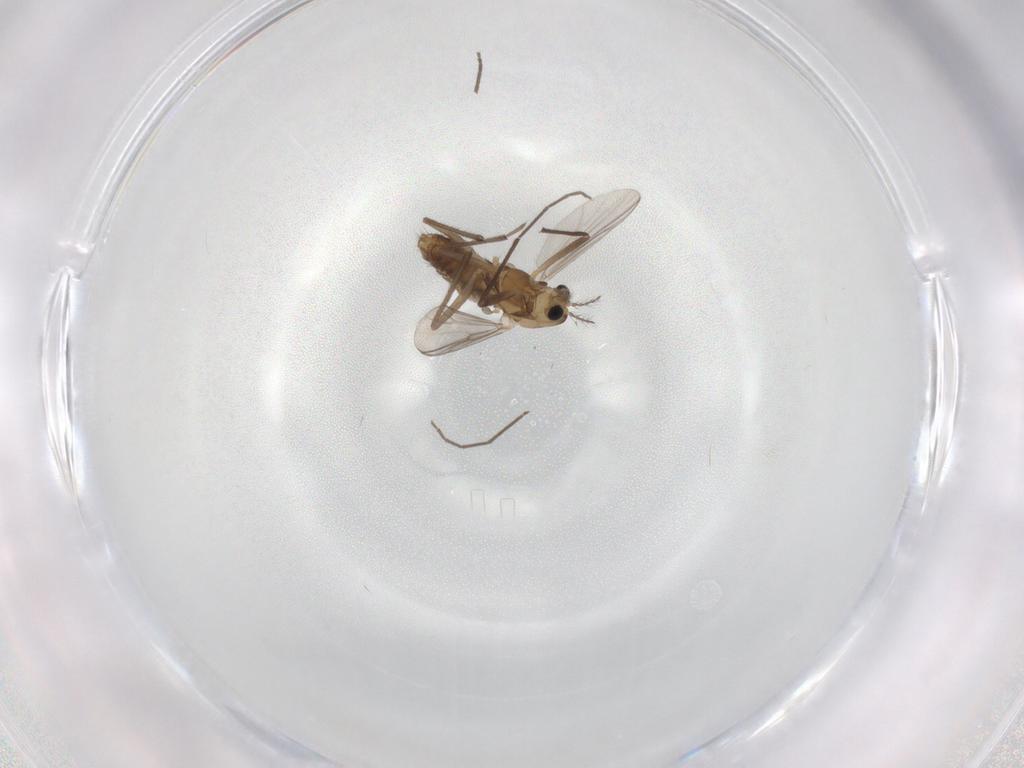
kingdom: Animalia
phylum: Arthropoda
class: Insecta
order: Diptera
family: Chironomidae
